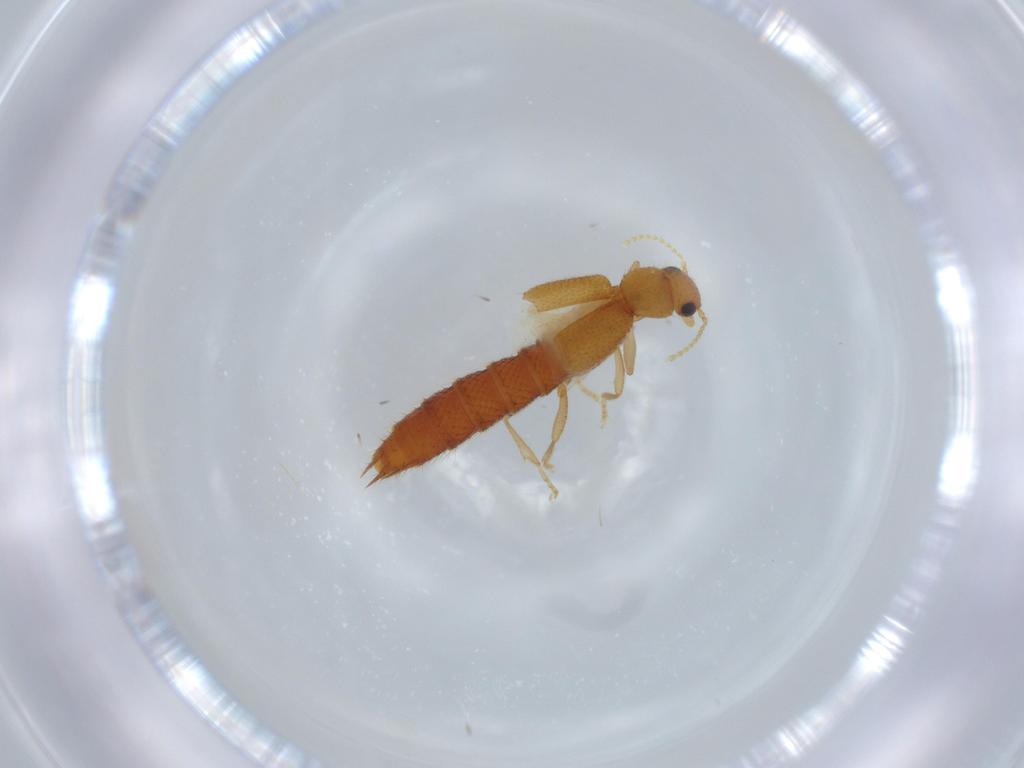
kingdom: Animalia
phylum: Arthropoda
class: Insecta
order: Coleoptera
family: Staphylinidae
